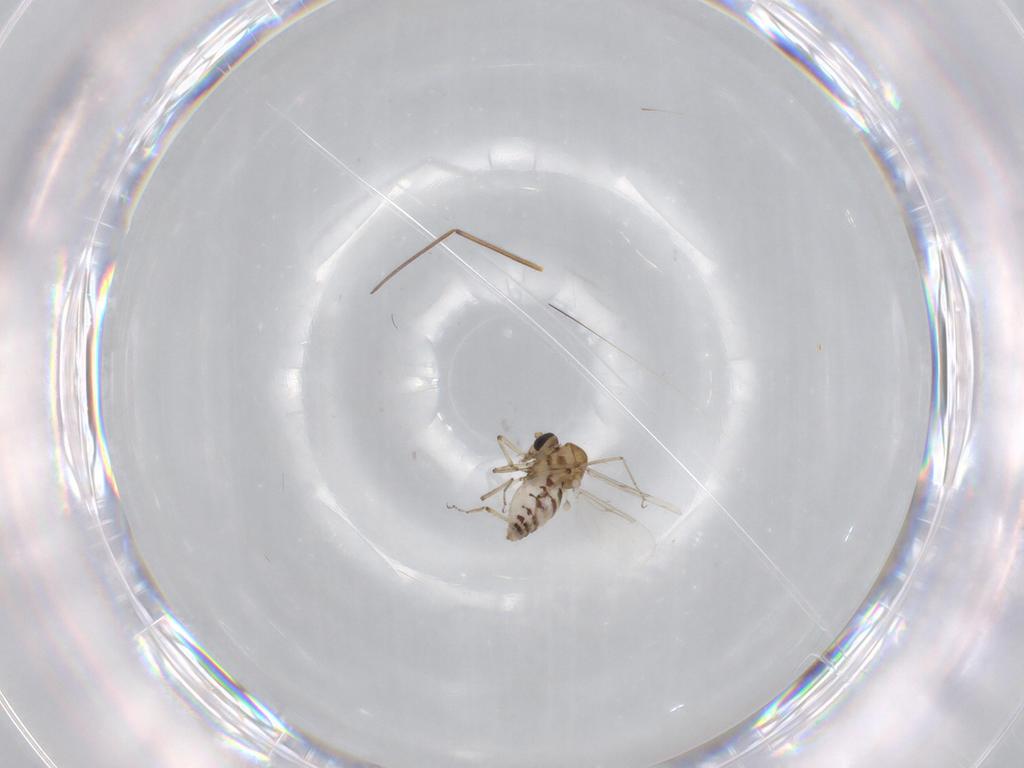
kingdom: Animalia
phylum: Arthropoda
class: Insecta
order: Diptera
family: Ceratopogonidae
